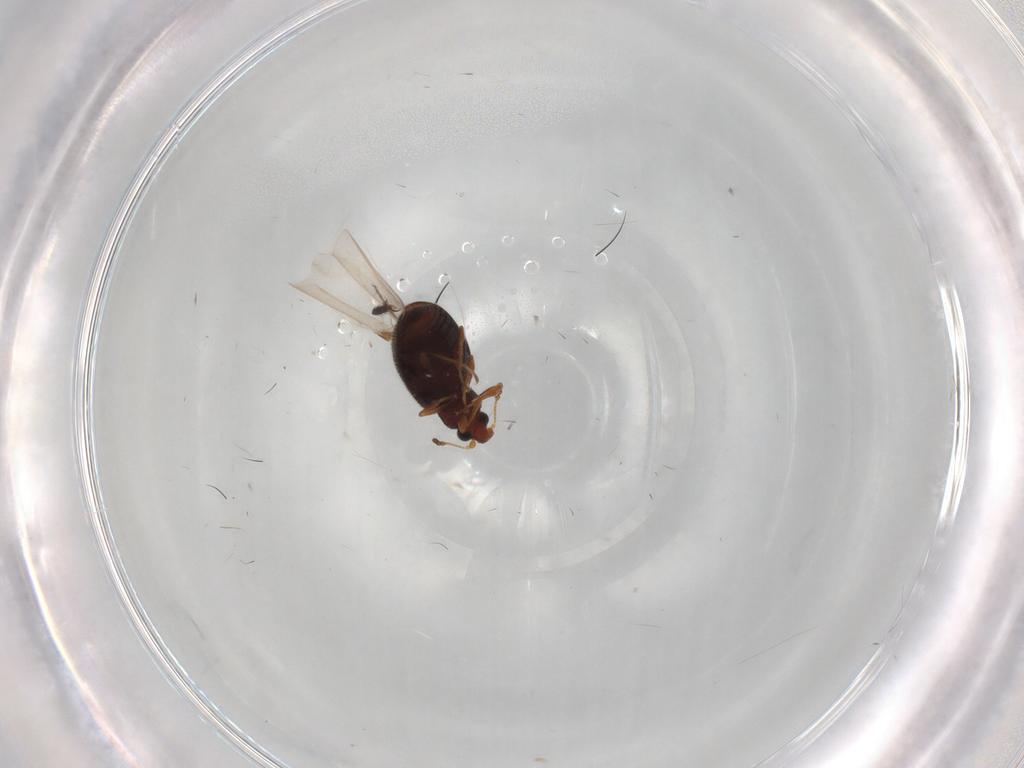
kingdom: Animalia
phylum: Arthropoda
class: Insecta
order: Coleoptera
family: Latridiidae
